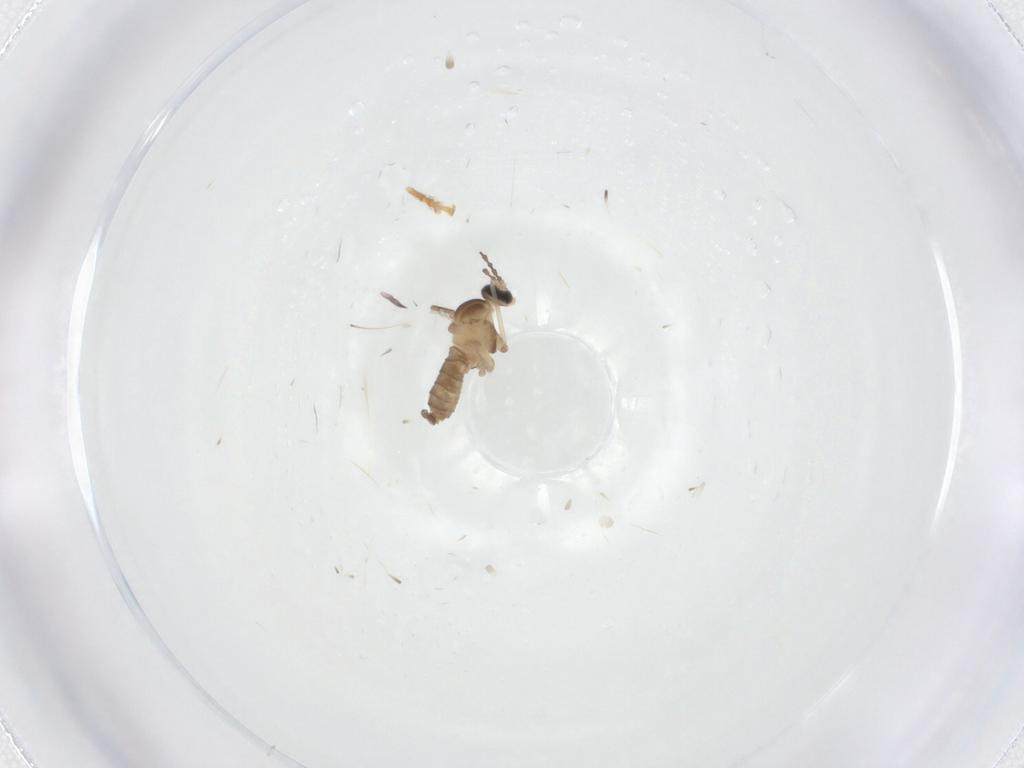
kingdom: Animalia
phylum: Arthropoda
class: Insecta
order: Diptera
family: Cecidomyiidae
